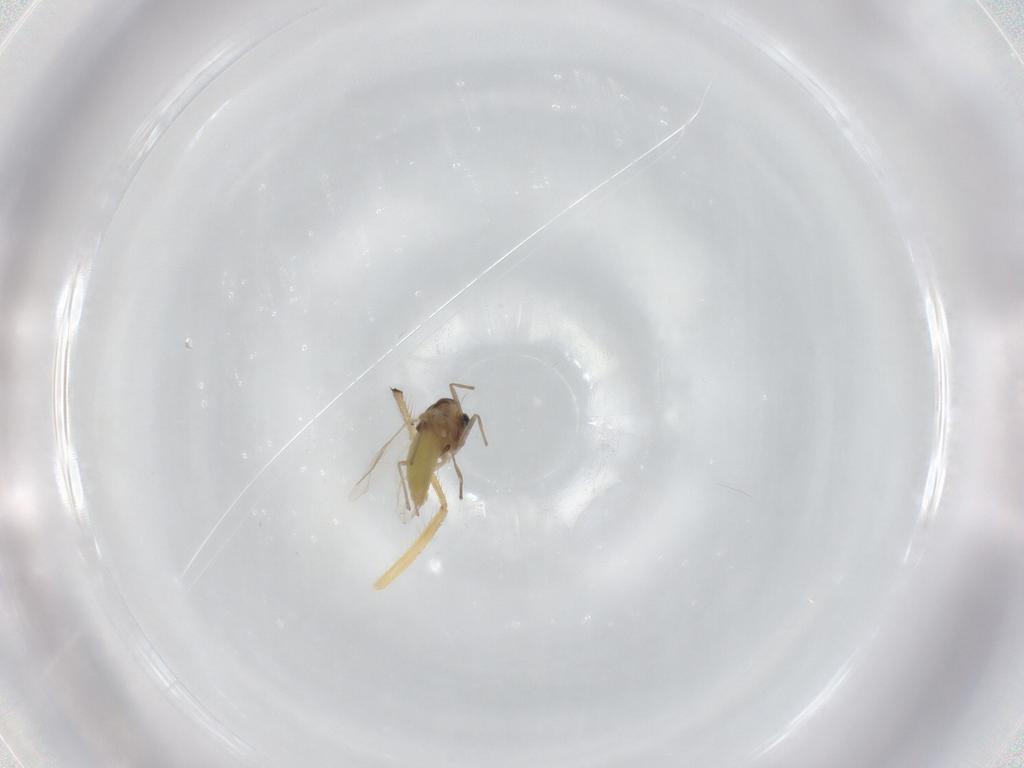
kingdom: Animalia
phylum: Arthropoda
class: Insecta
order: Diptera
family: Chironomidae
